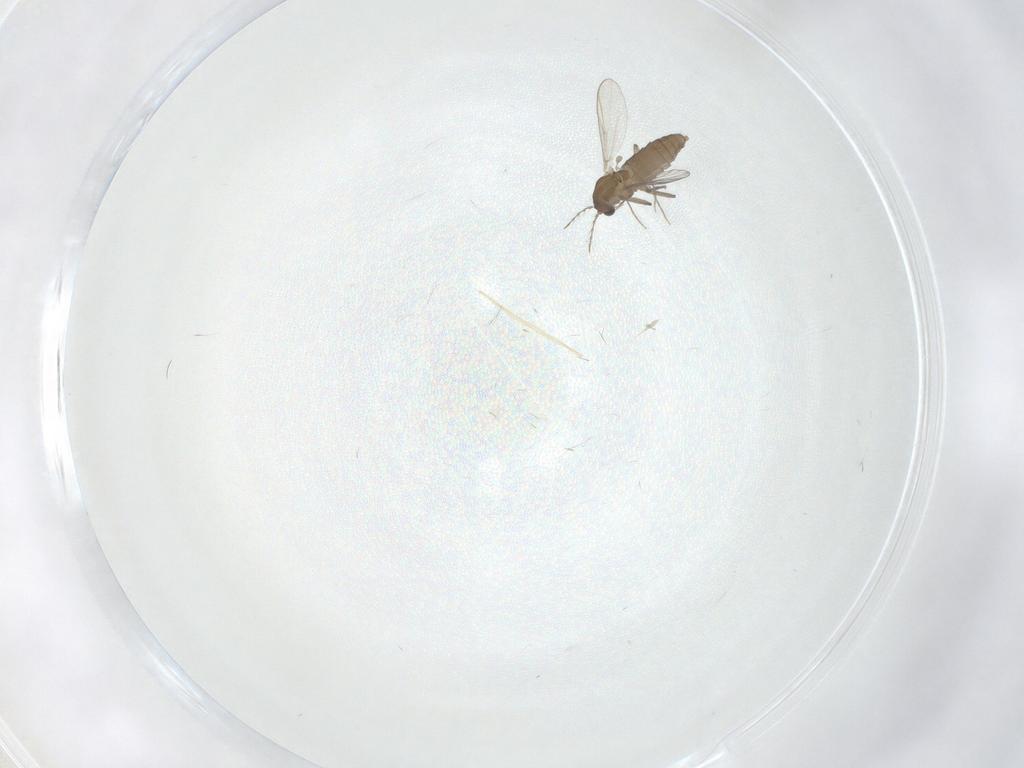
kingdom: Animalia
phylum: Arthropoda
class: Insecta
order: Diptera
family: Chironomidae
